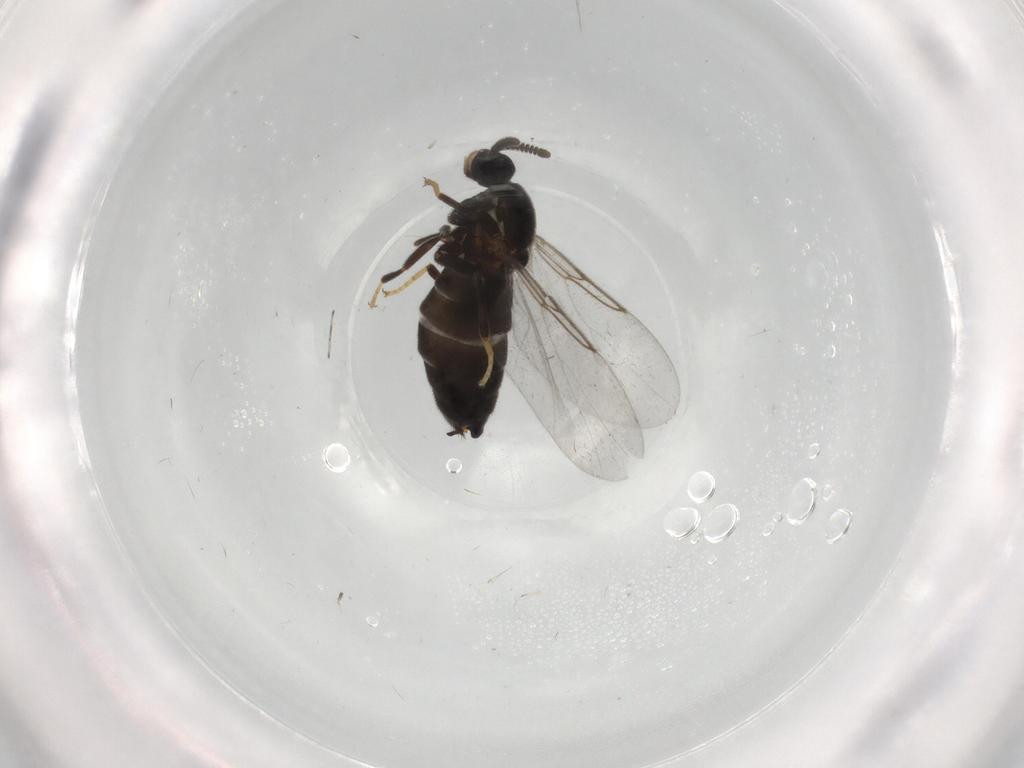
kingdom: Animalia
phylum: Arthropoda
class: Insecta
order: Diptera
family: Scatopsidae
